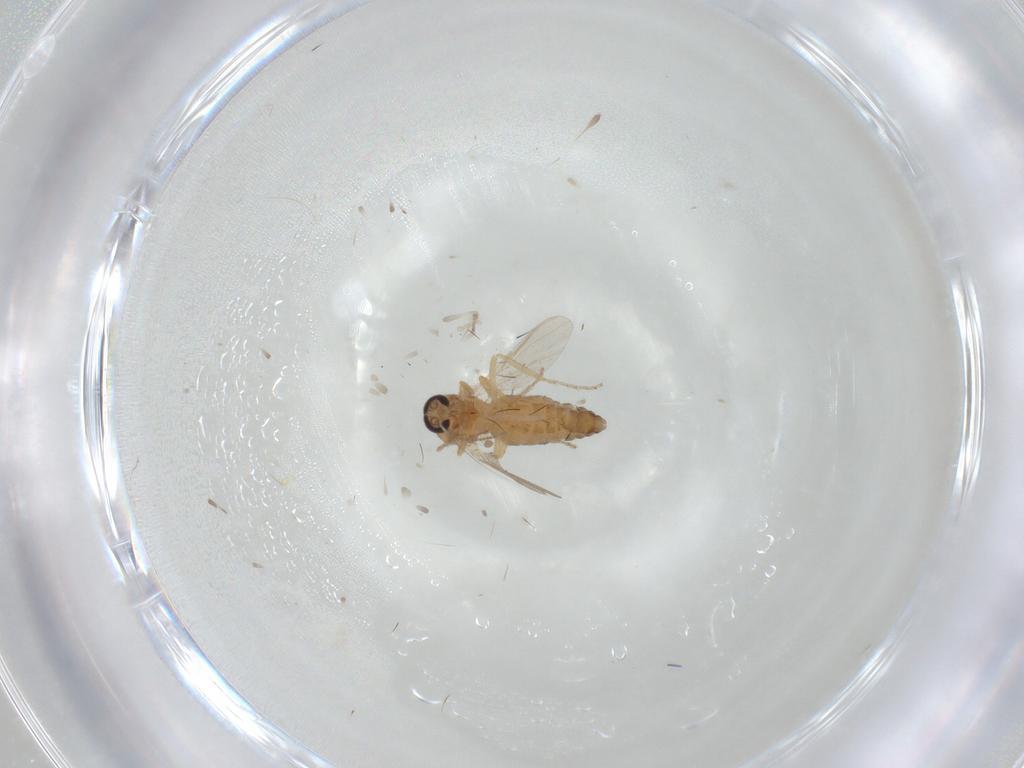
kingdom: Animalia
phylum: Arthropoda
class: Insecta
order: Diptera
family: Ceratopogonidae
